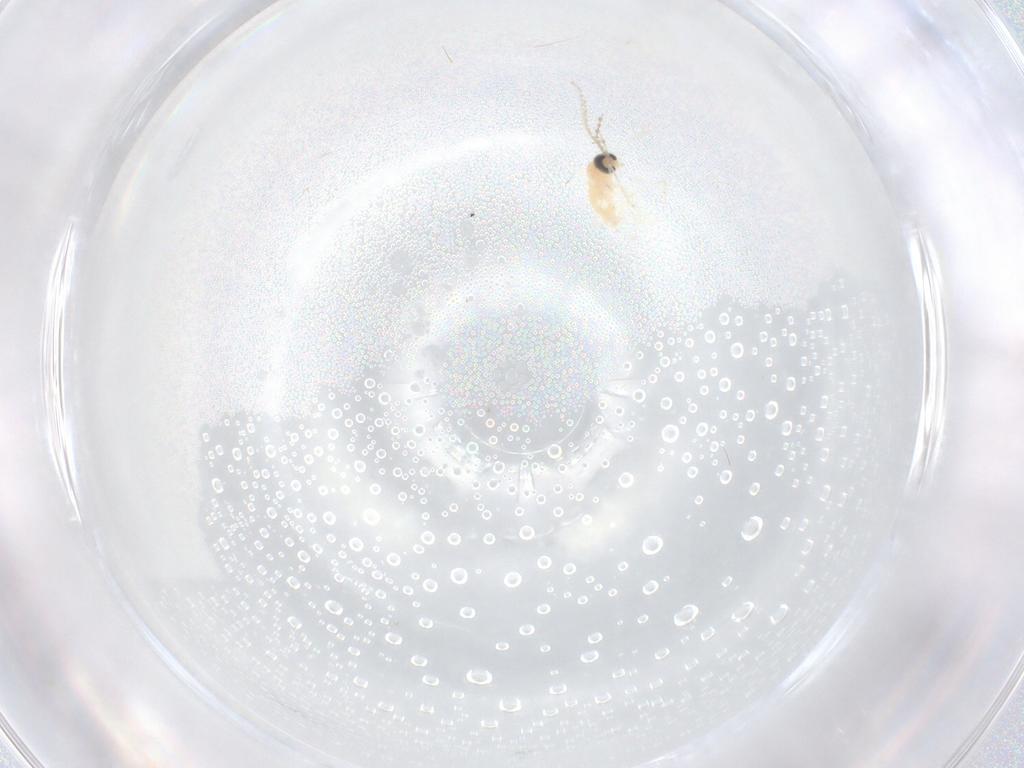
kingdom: Animalia
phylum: Arthropoda
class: Insecta
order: Diptera
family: Cecidomyiidae
